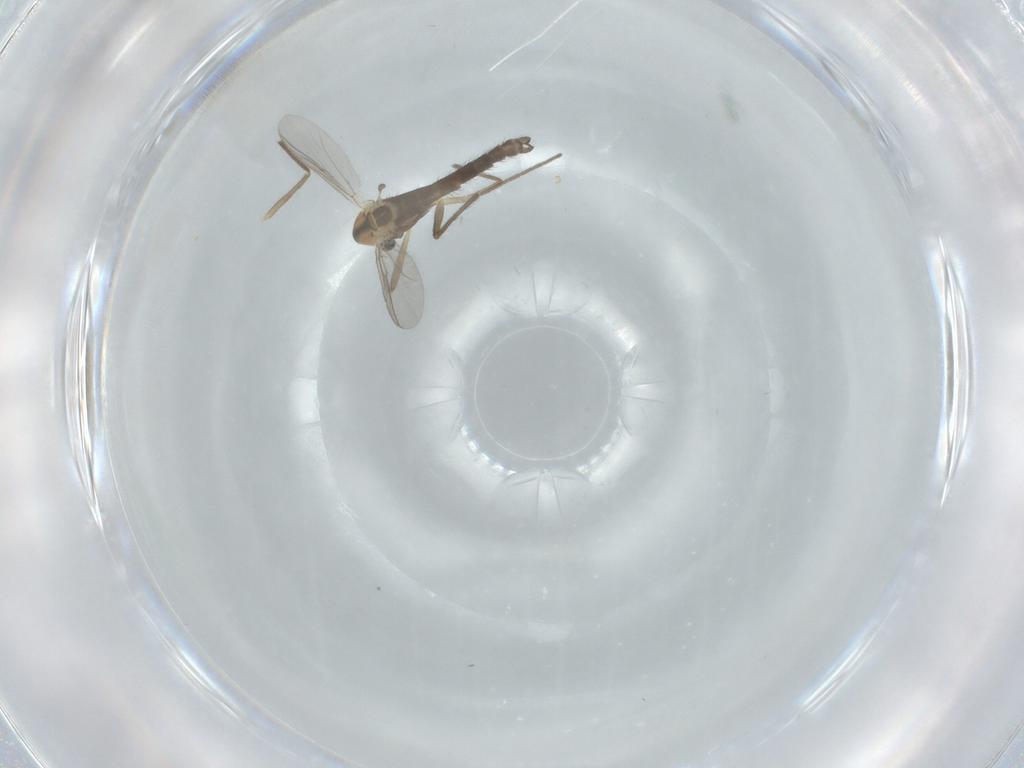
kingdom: Animalia
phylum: Arthropoda
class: Insecta
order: Diptera
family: Chironomidae
